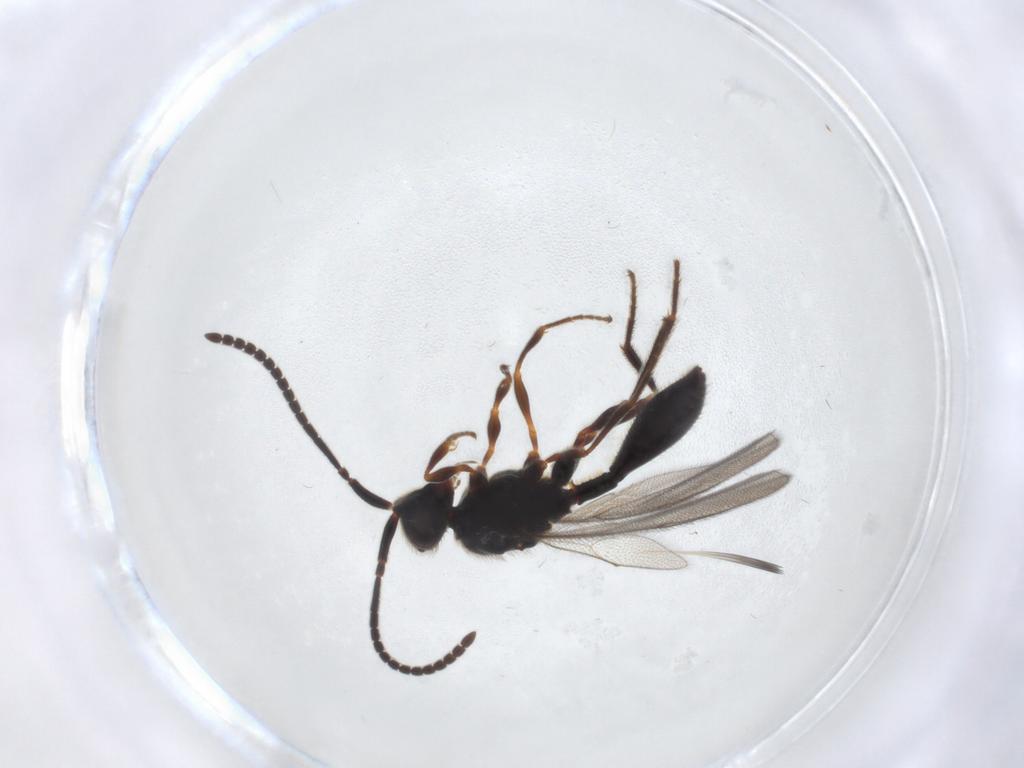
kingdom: Animalia
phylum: Arthropoda
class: Insecta
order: Hymenoptera
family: Diapriidae
